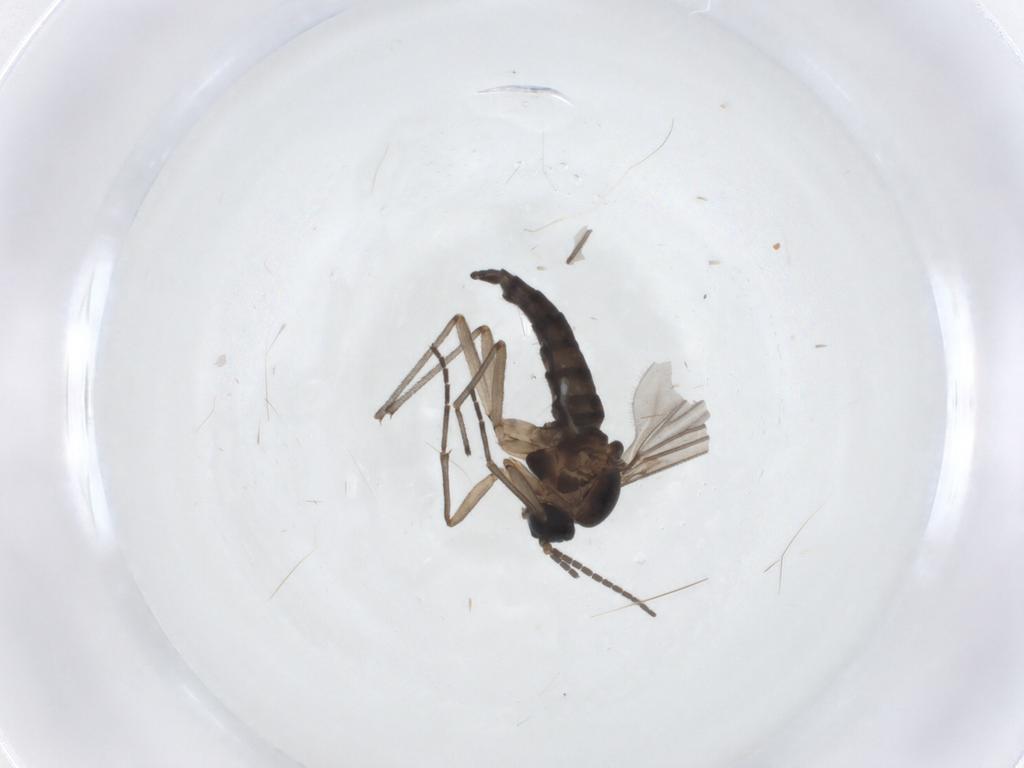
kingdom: Animalia
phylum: Arthropoda
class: Insecta
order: Diptera
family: Sciaridae
